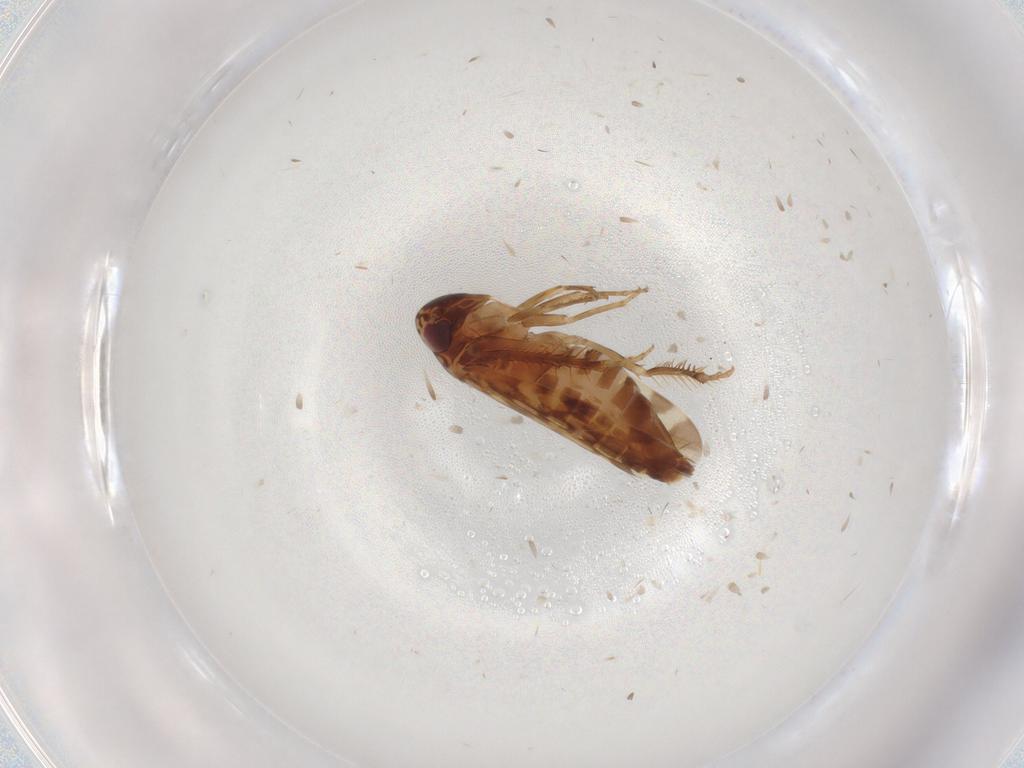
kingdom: Animalia
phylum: Arthropoda
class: Insecta
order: Hemiptera
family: Cicadellidae
